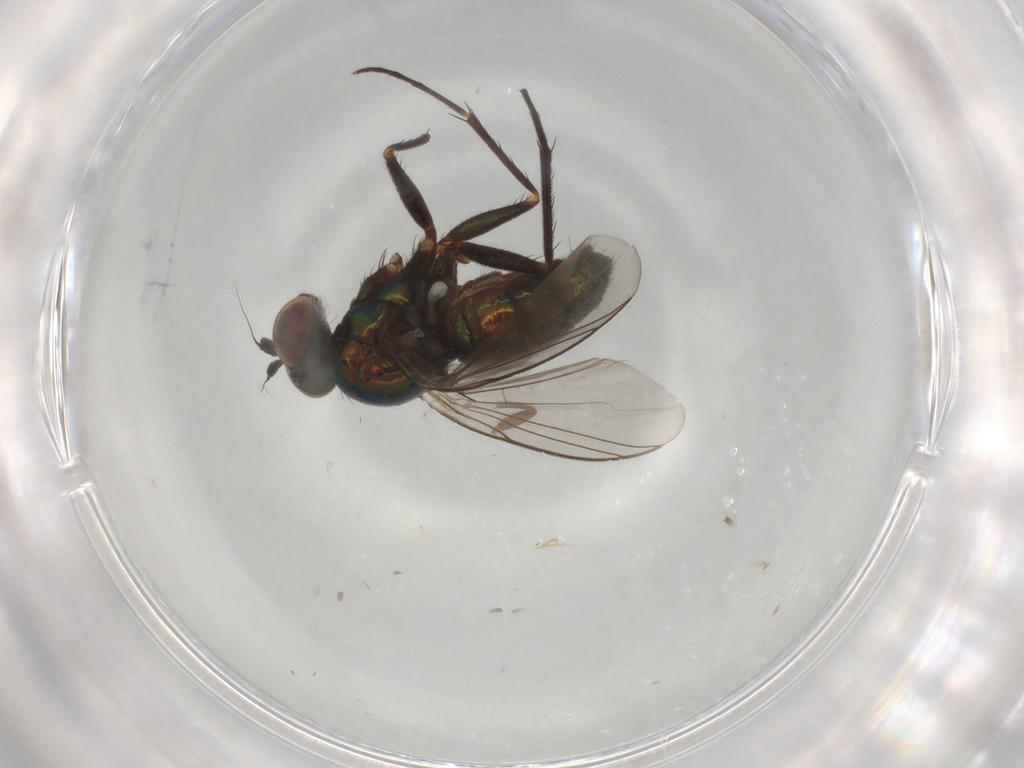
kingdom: Animalia
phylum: Arthropoda
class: Insecta
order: Diptera
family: Dolichopodidae
